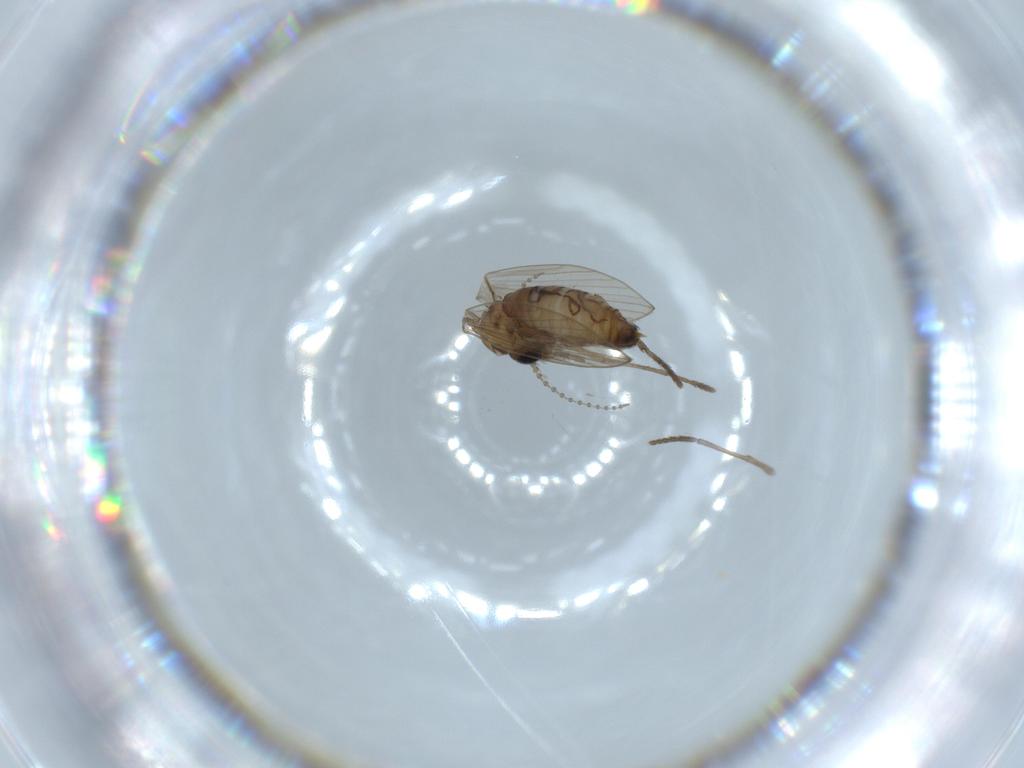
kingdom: Animalia
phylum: Arthropoda
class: Insecta
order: Diptera
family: Psychodidae
